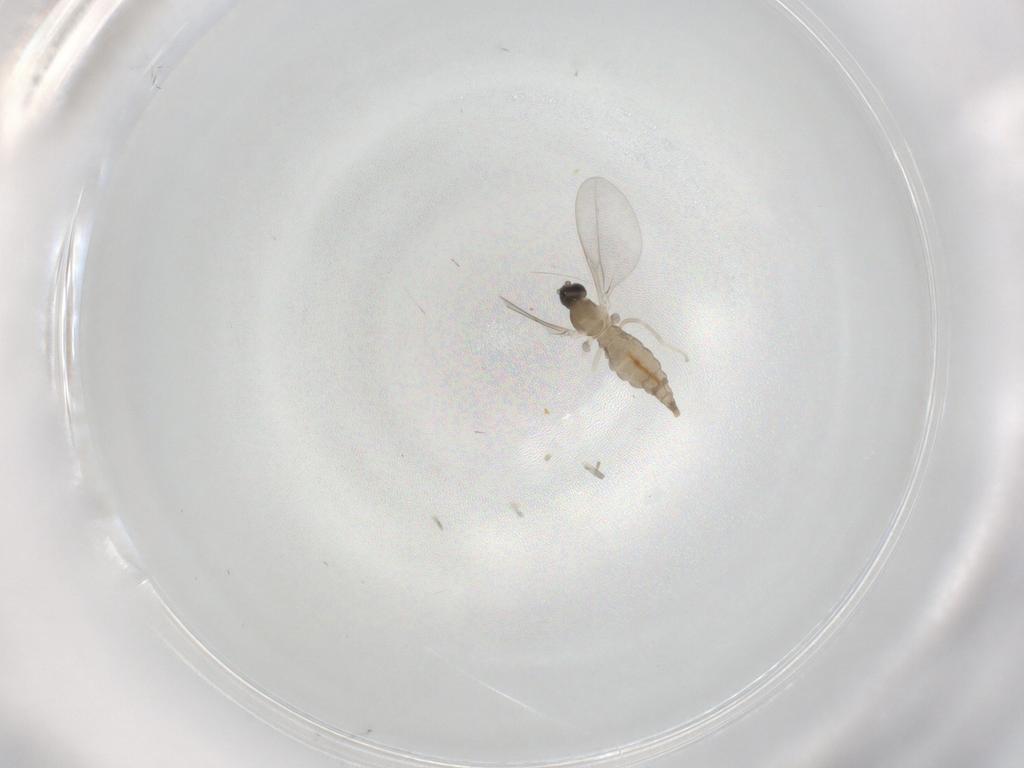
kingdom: Animalia
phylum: Arthropoda
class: Insecta
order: Diptera
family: Cecidomyiidae
